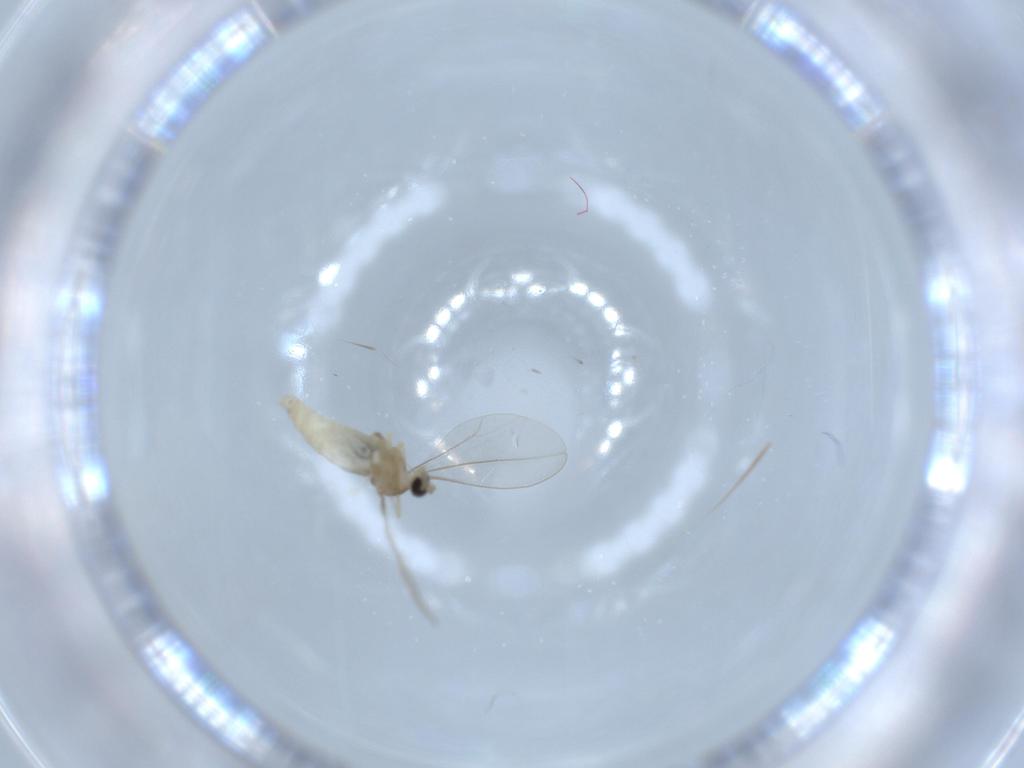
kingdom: Animalia
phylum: Arthropoda
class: Insecta
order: Diptera
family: Cecidomyiidae
